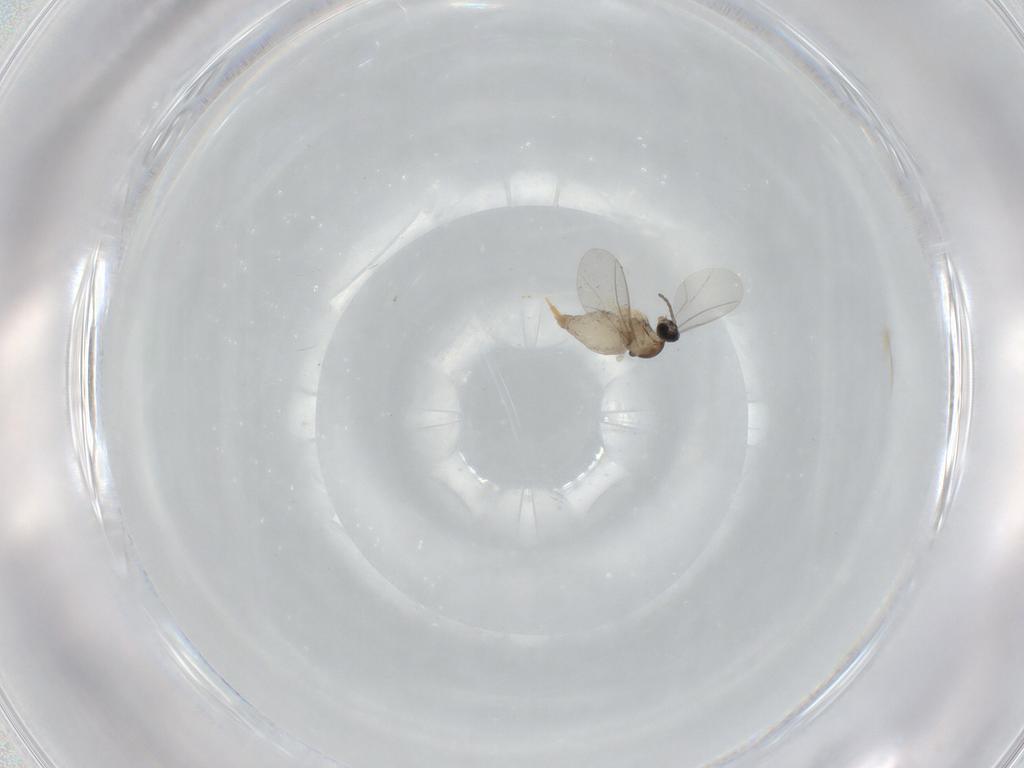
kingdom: Animalia
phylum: Arthropoda
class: Insecta
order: Diptera
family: Cecidomyiidae
